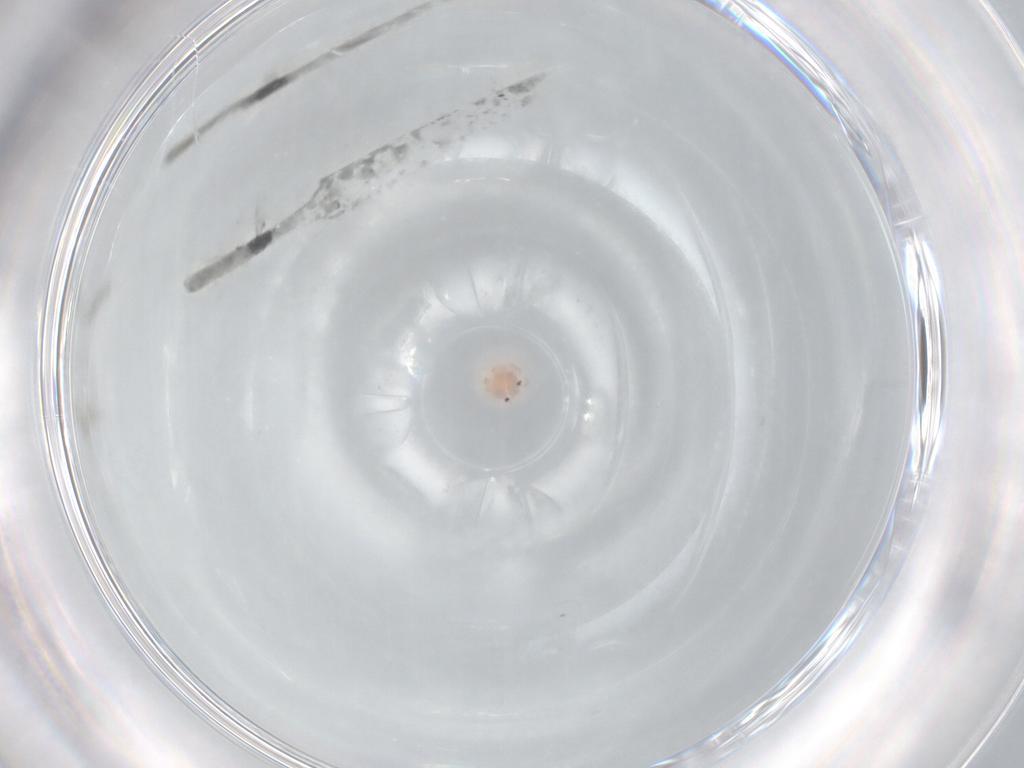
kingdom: Animalia
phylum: Arthropoda
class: Arachnida
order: Trombidiformes
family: Arrenuridae
